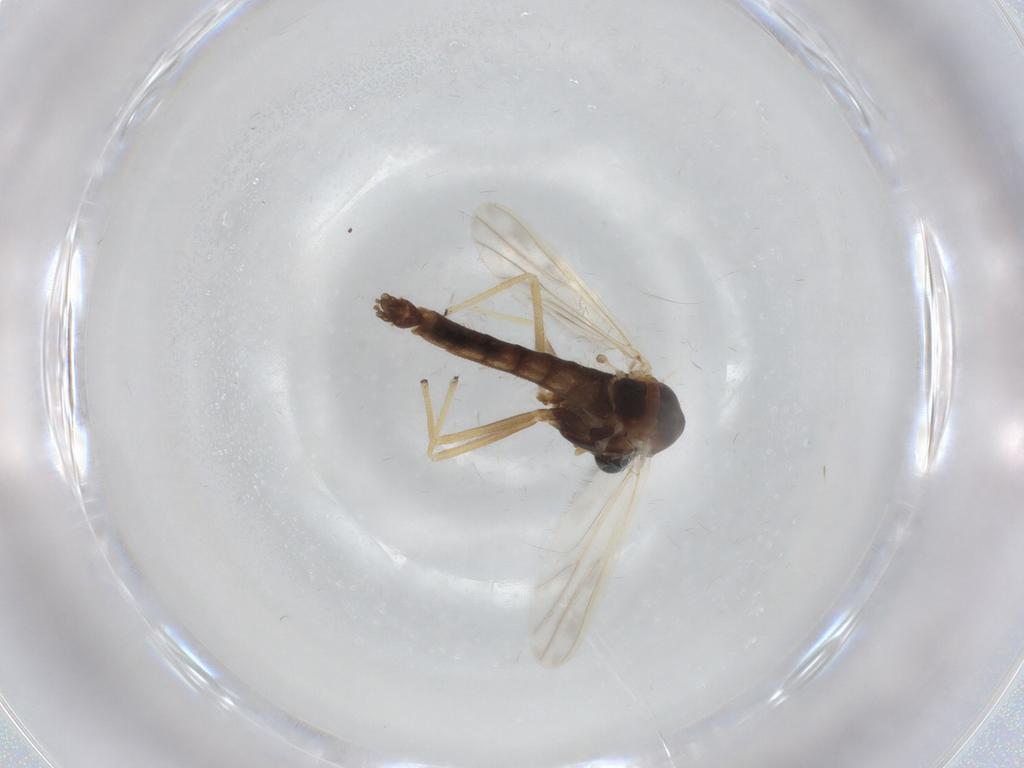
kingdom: Animalia
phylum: Arthropoda
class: Insecta
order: Diptera
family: Chironomidae
